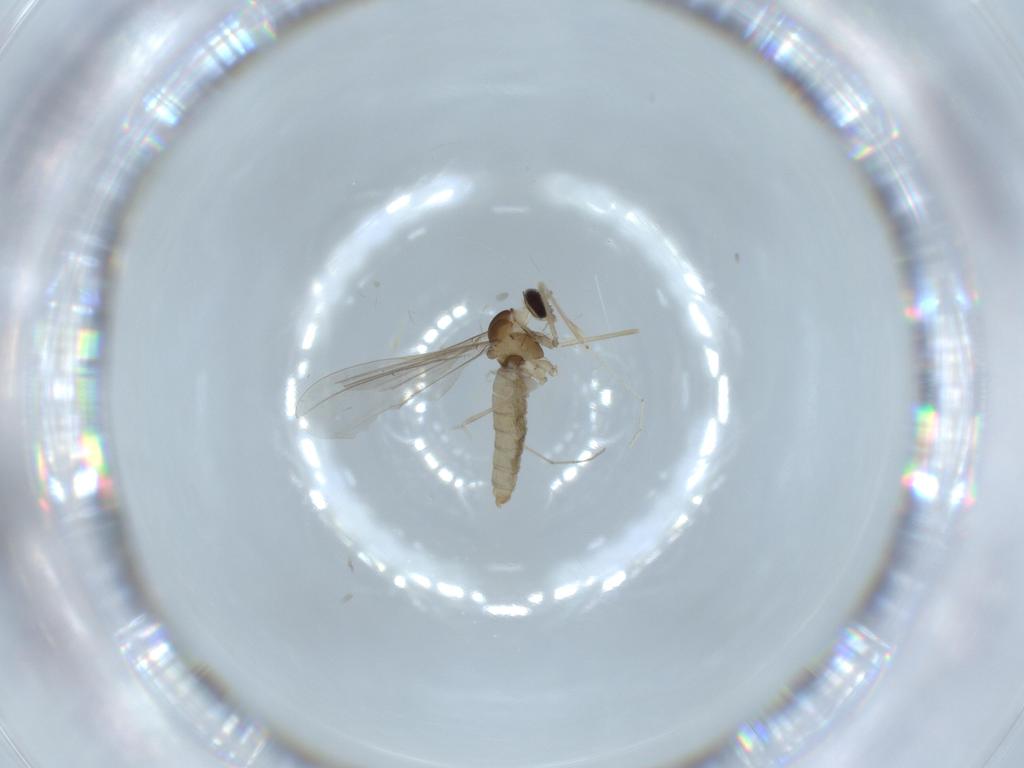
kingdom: Animalia
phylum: Arthropoda
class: Insecta
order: Diptera
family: Cecidomyiidae
